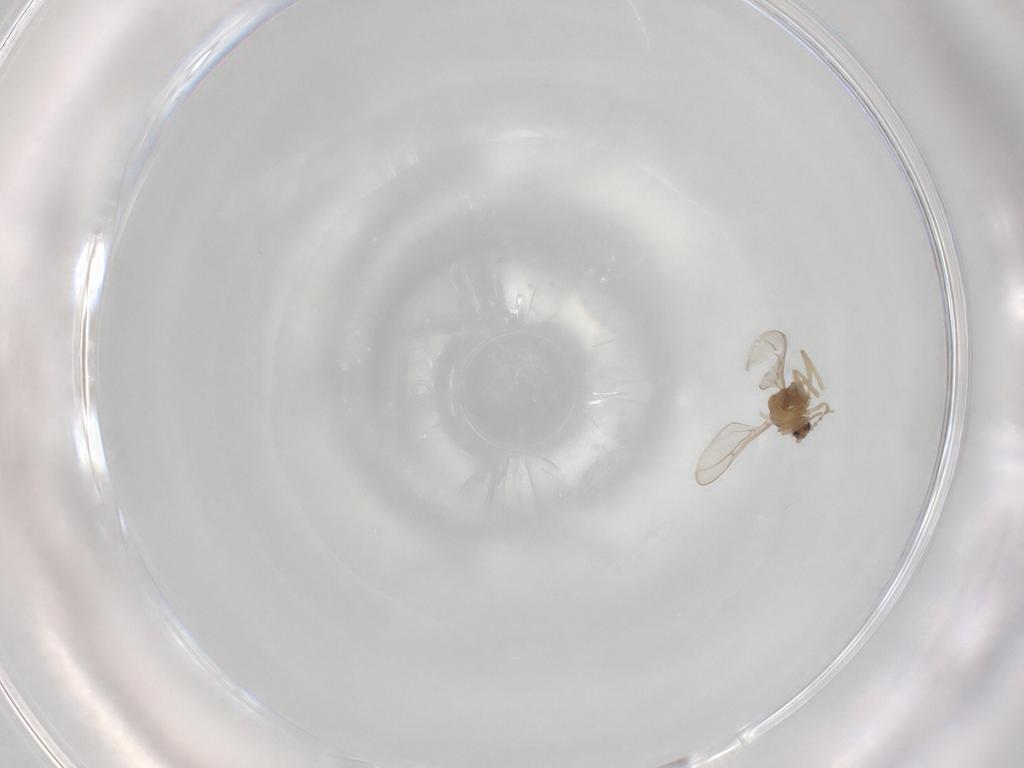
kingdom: Animalia
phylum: Arthropoda
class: Insecta
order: Diptera
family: Cecidomyiidae
